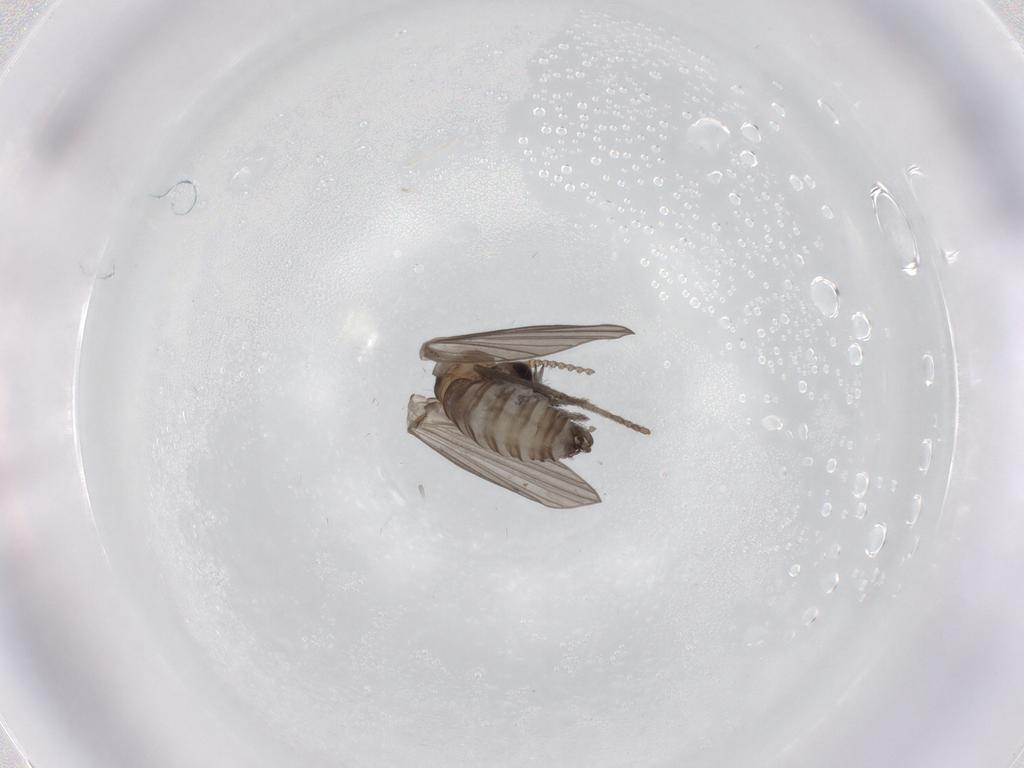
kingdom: Animalia
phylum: Arthropoda
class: Insecta
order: Diptera
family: Psychodidae
